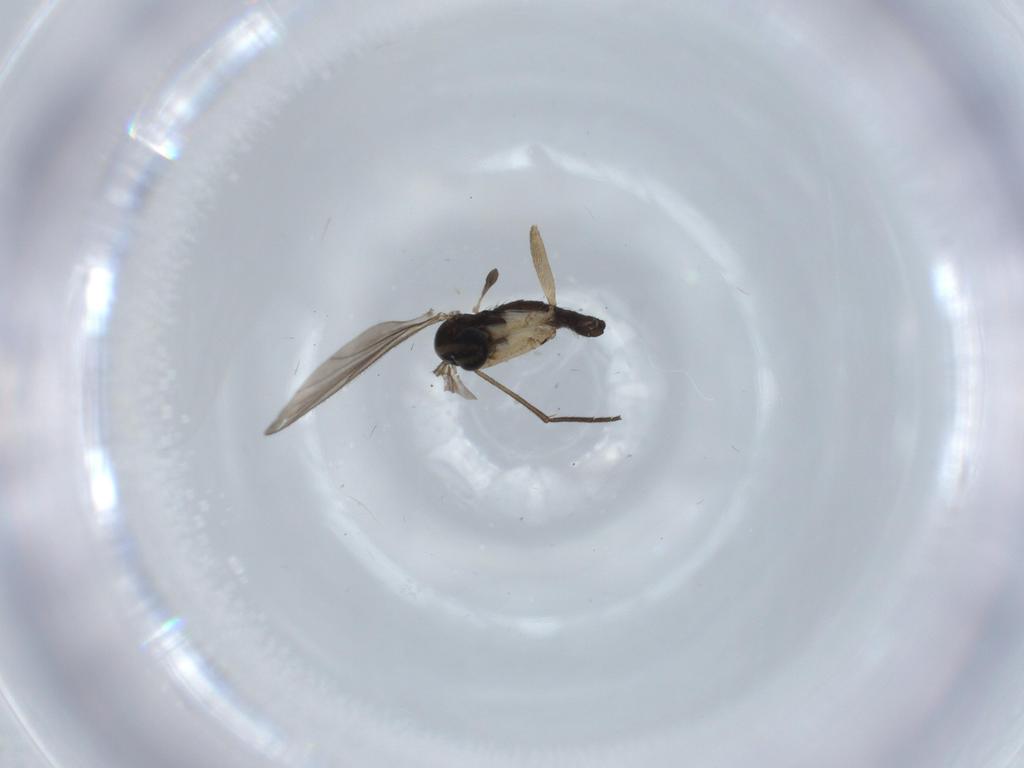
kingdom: Animalia
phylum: Arthropoda
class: Insecta
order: Diptera
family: Sciaridae
